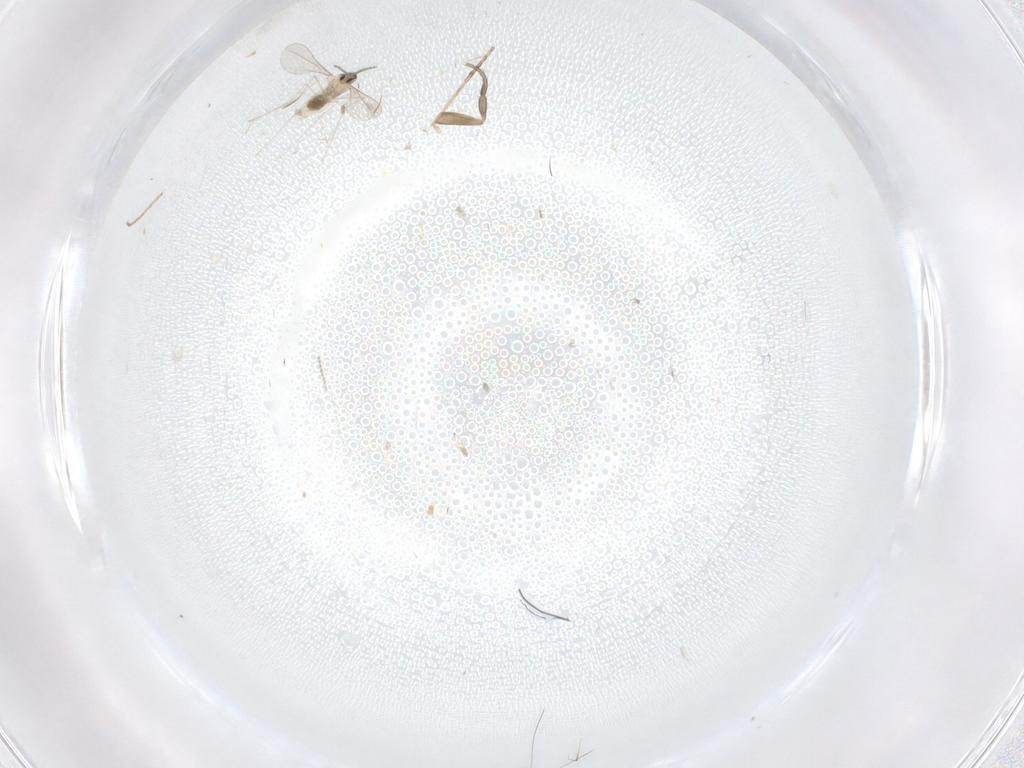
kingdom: Animalia
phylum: Arthropoda
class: Insecta
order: Diptera
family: Cecidomyiidae
